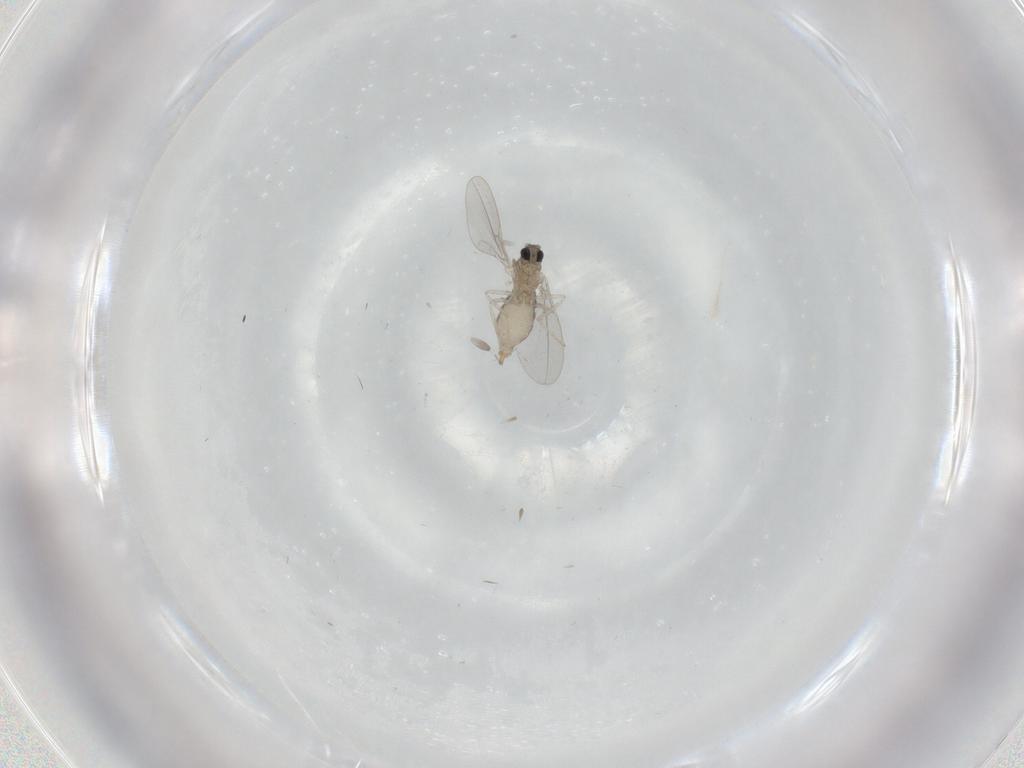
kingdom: Animalia
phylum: Arthropoda
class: Insecta
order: Diptera
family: Cecidomyiidae
